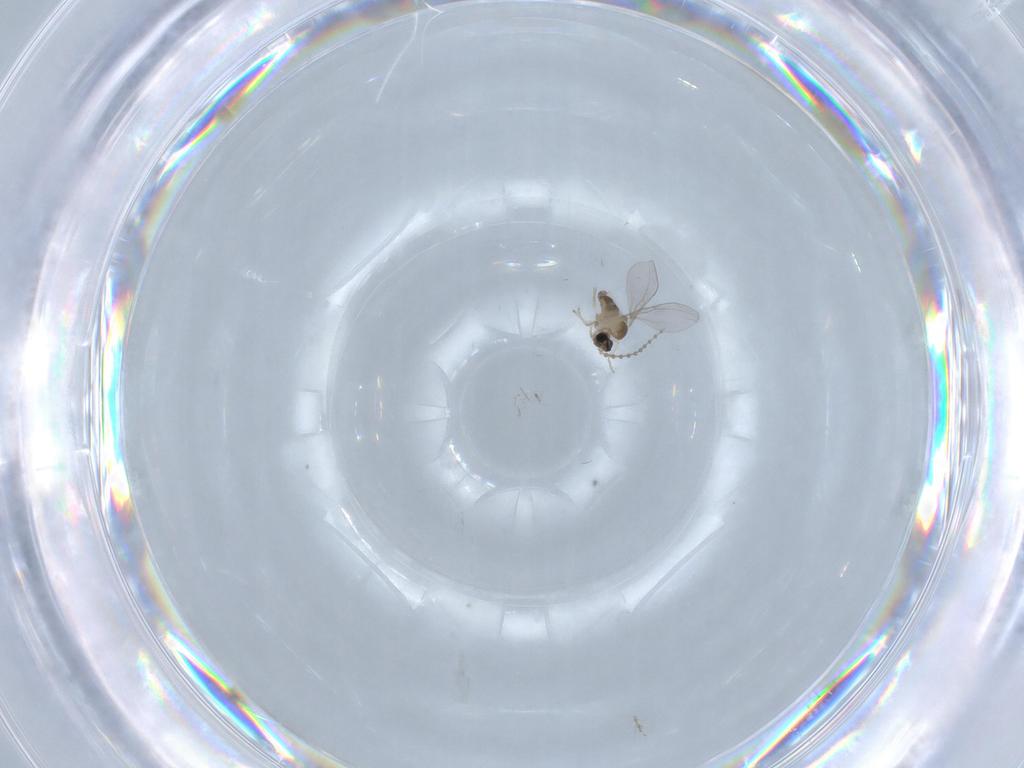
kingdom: Animalia
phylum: Arthropoda
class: Insecta
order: Diptera
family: Cecidomyiidae
